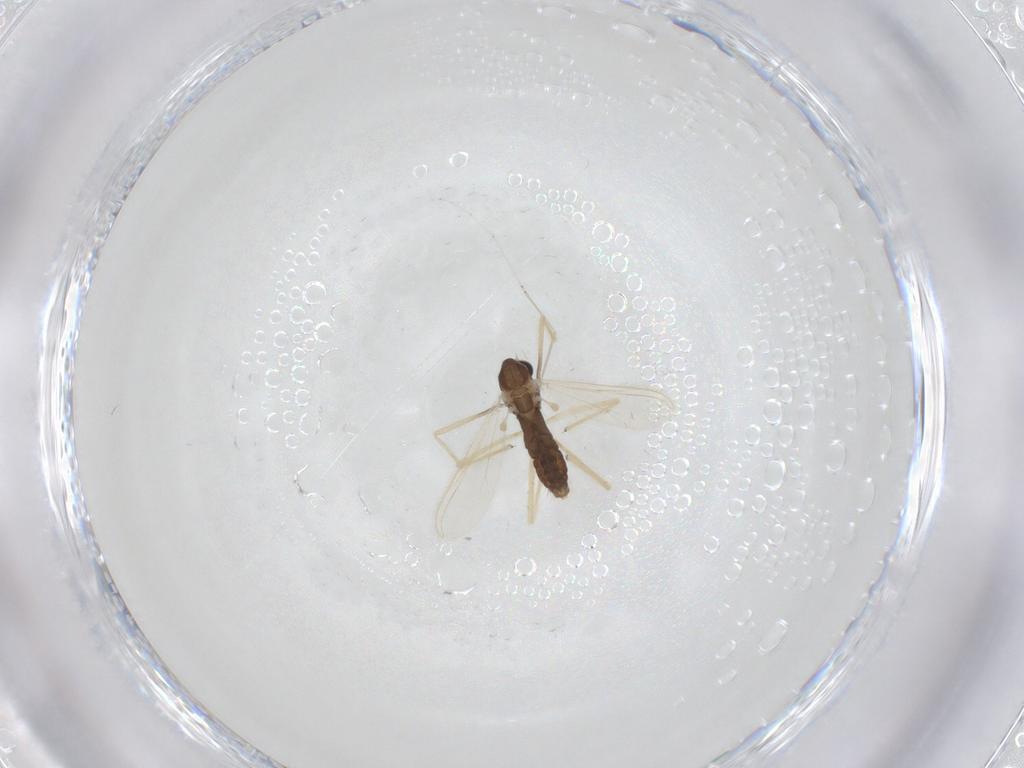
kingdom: Animalia
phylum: Arthropoda
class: Insecta
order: Diptera
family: Chironomidae
